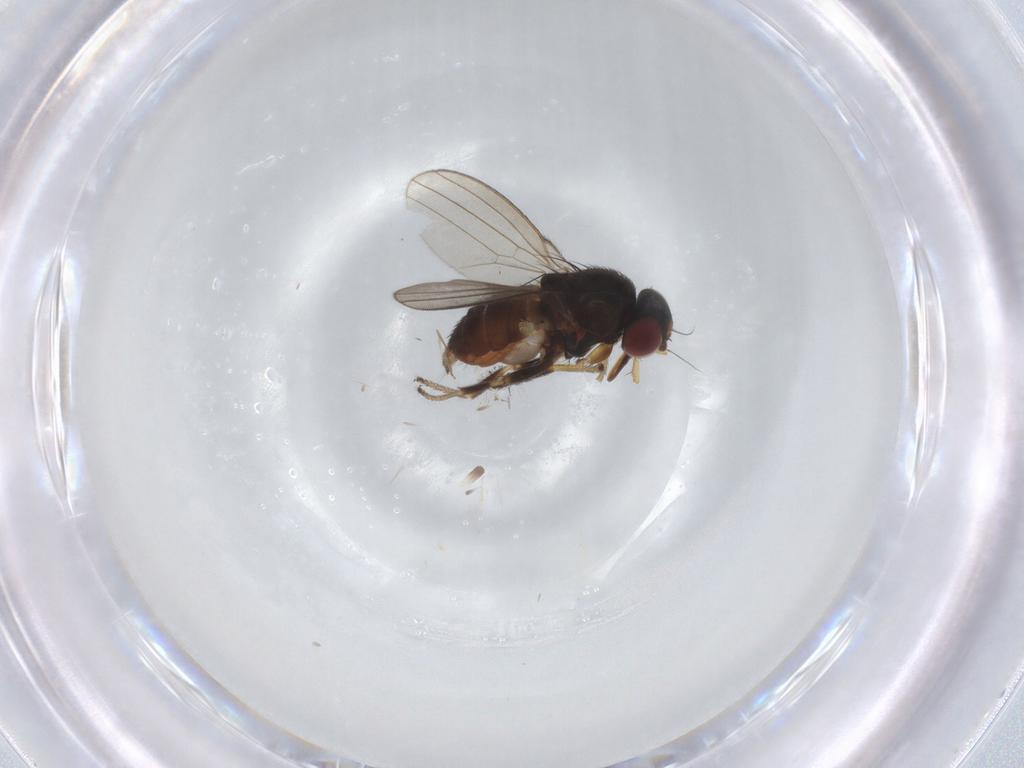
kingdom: Animalia
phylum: Arthropoda
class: Insecta
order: Diptera
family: Milichiidae
